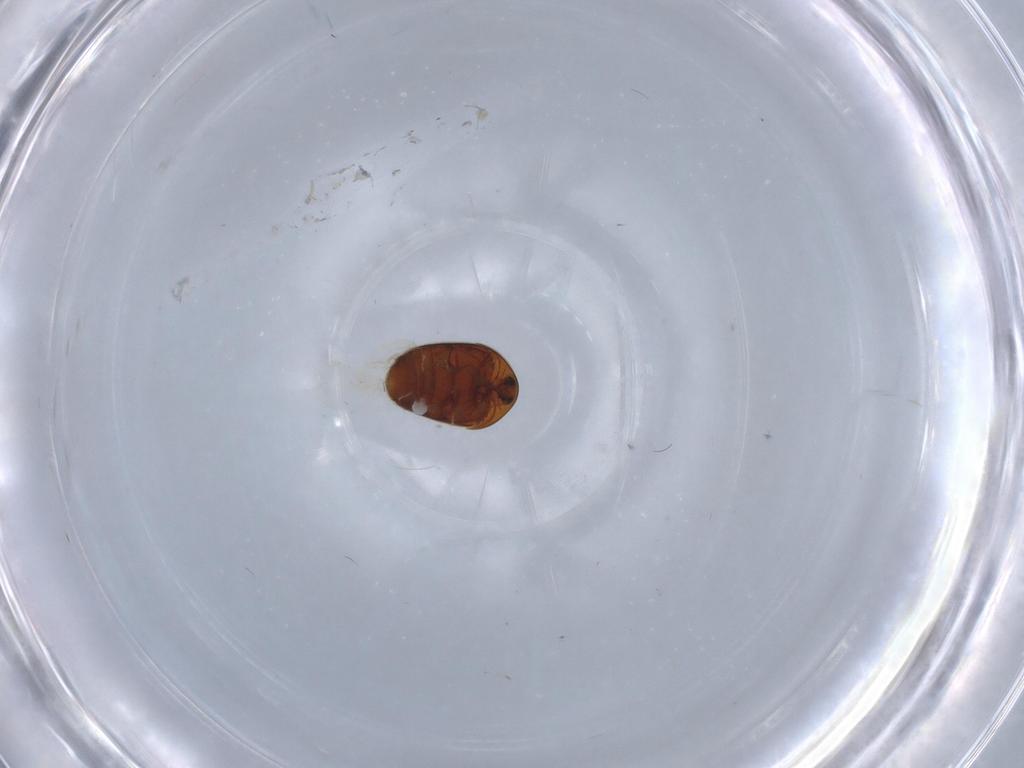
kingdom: Animalia
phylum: Arthropoda
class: Insecta
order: Coleoptera
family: Corylophidae
